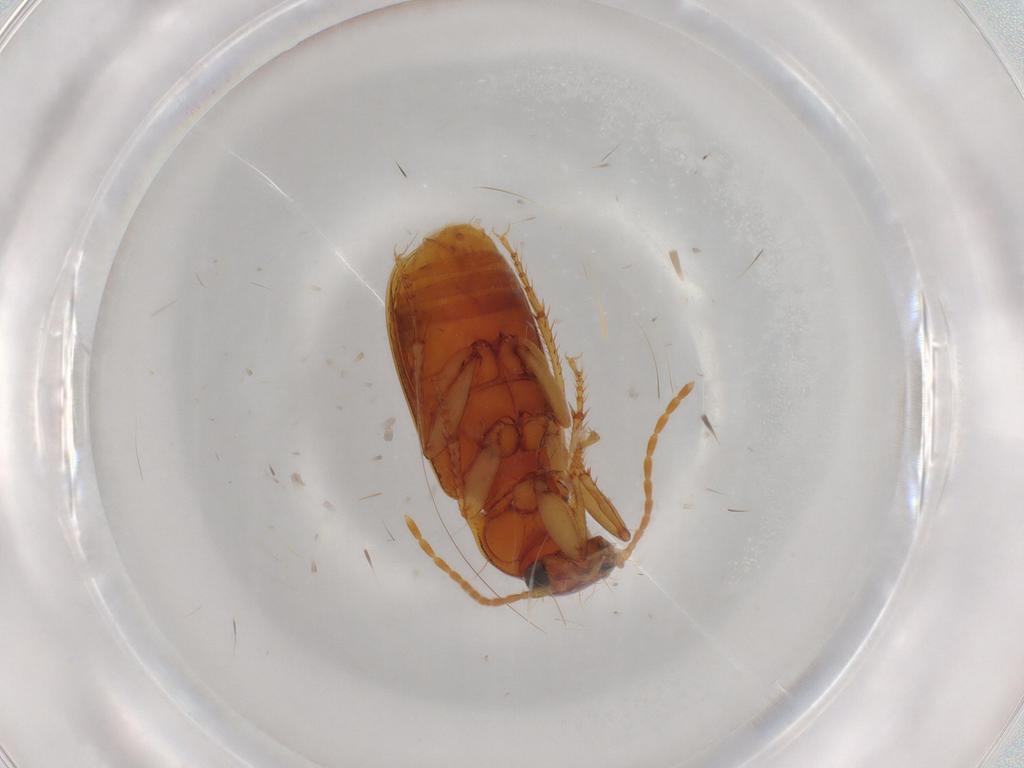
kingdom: Animalia
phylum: Arthropoda
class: Insecta
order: Coleoptera
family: Carabidae
